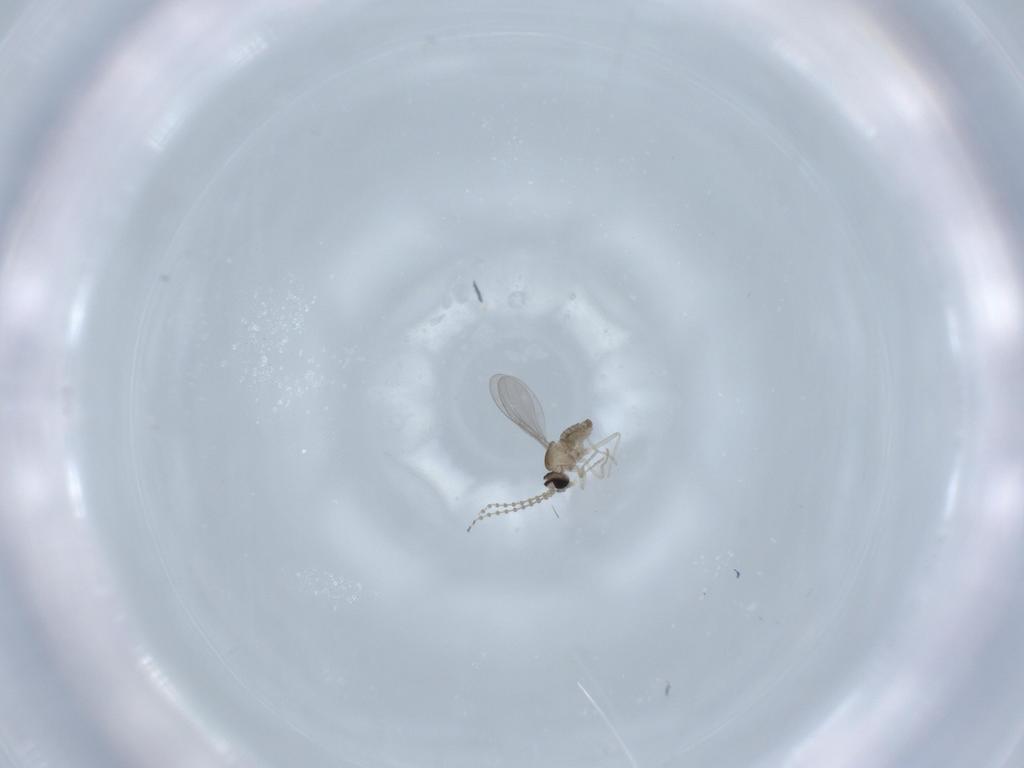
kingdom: Animalia
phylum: Arthropoda
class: Insecta
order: Diptera
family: Cecidomyiidae
